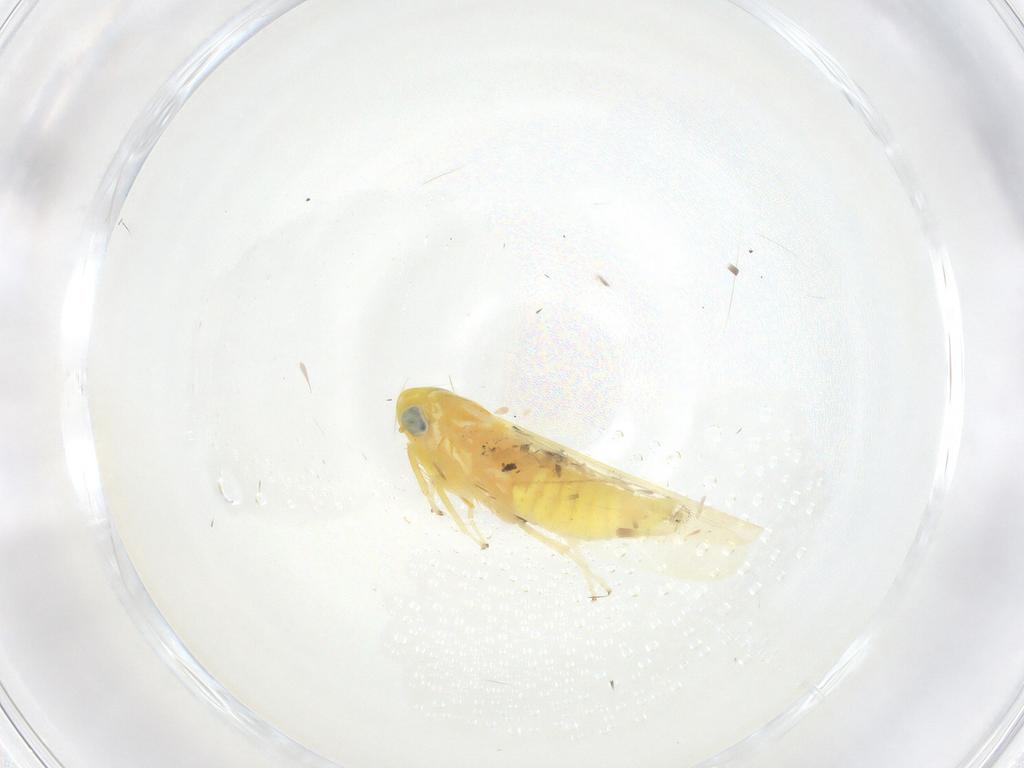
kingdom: Animalia
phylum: Arthropoda
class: Insecta
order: Hemiptera
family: Cicadellidae
